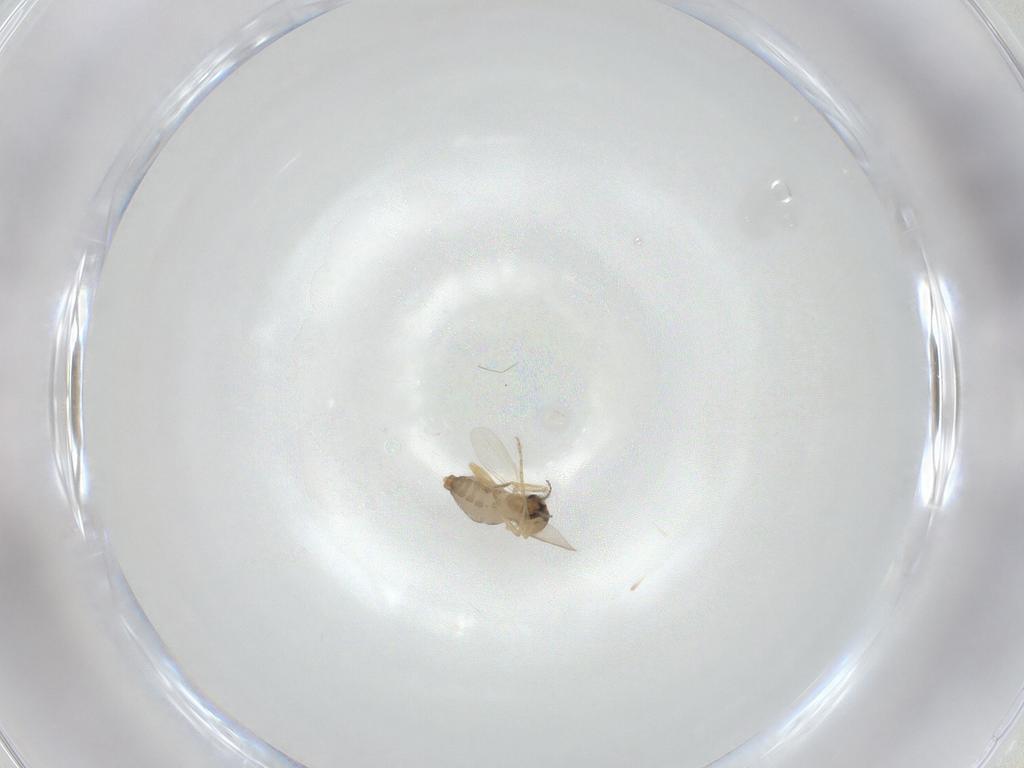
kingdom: Animalia
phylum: Arthropoda
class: Insecta
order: Diptera
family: Ceratopogonidae
